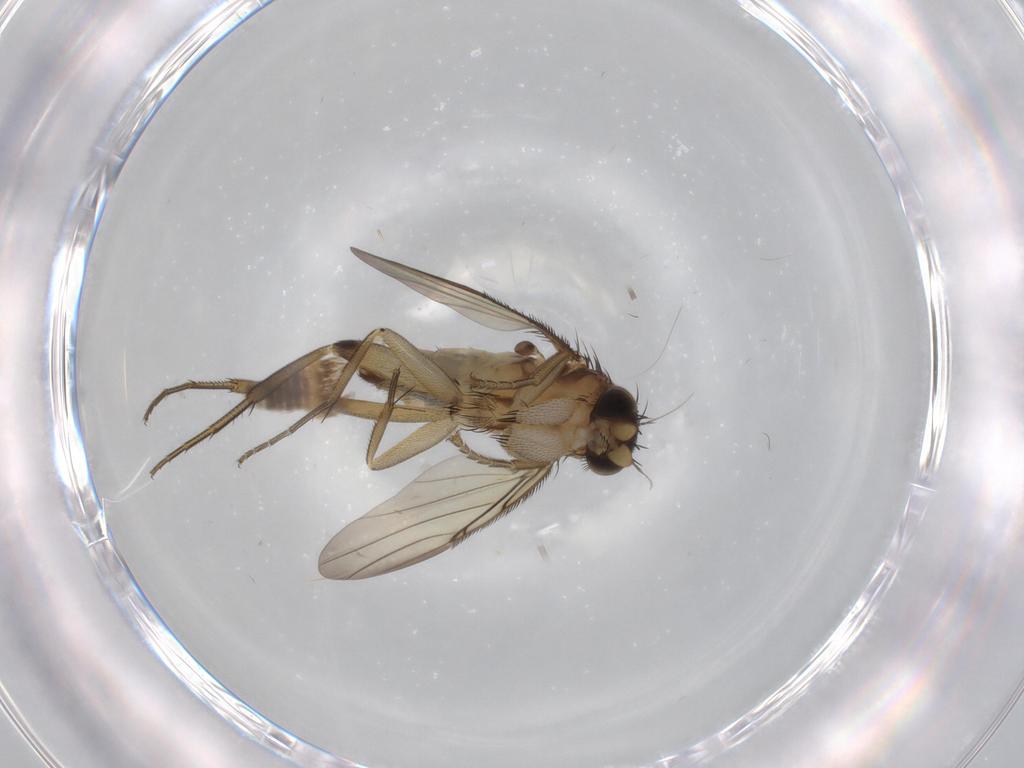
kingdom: Animalia
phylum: Arthropoda
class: Insecta
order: Diptera
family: Phoridae
